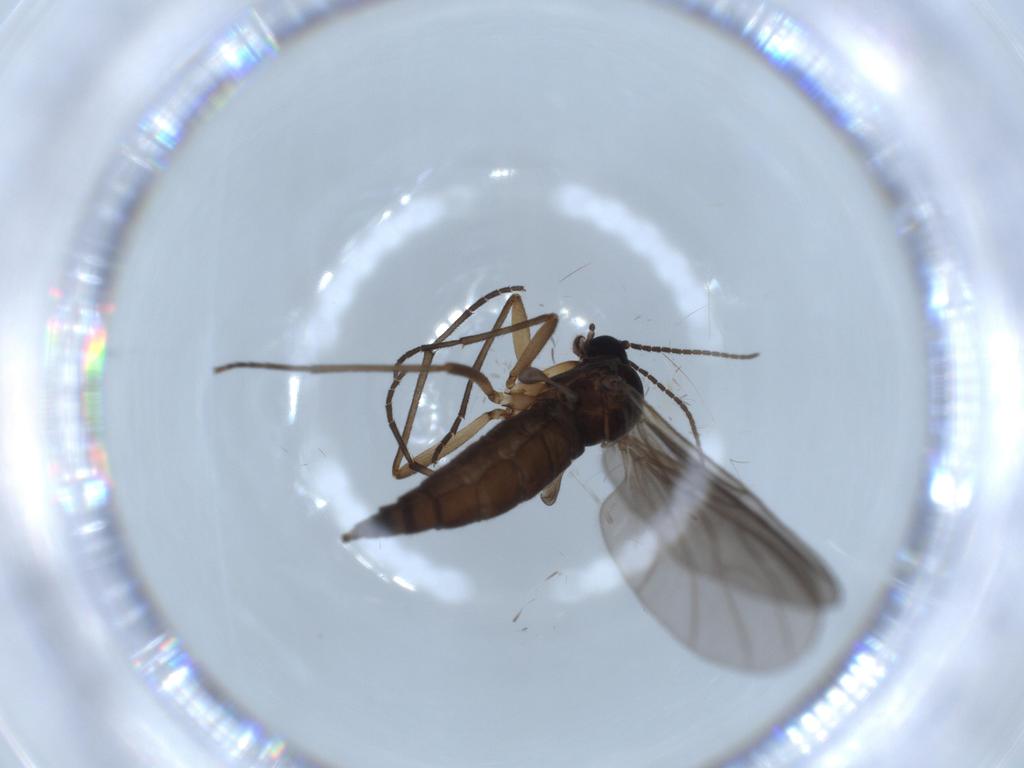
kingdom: Animalia
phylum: Arthropoda
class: Insecta
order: Diptera
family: Sciaridae
